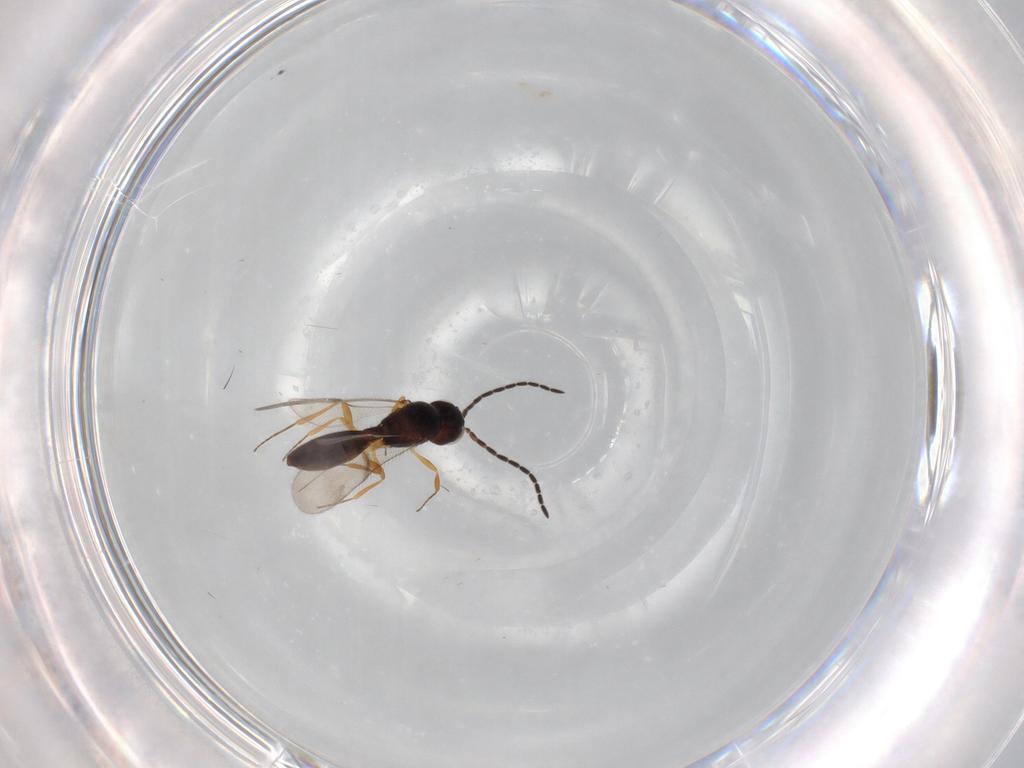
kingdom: Animalia
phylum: Arthropoda
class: Insecta
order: Hymenoptera
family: Scelionidae
